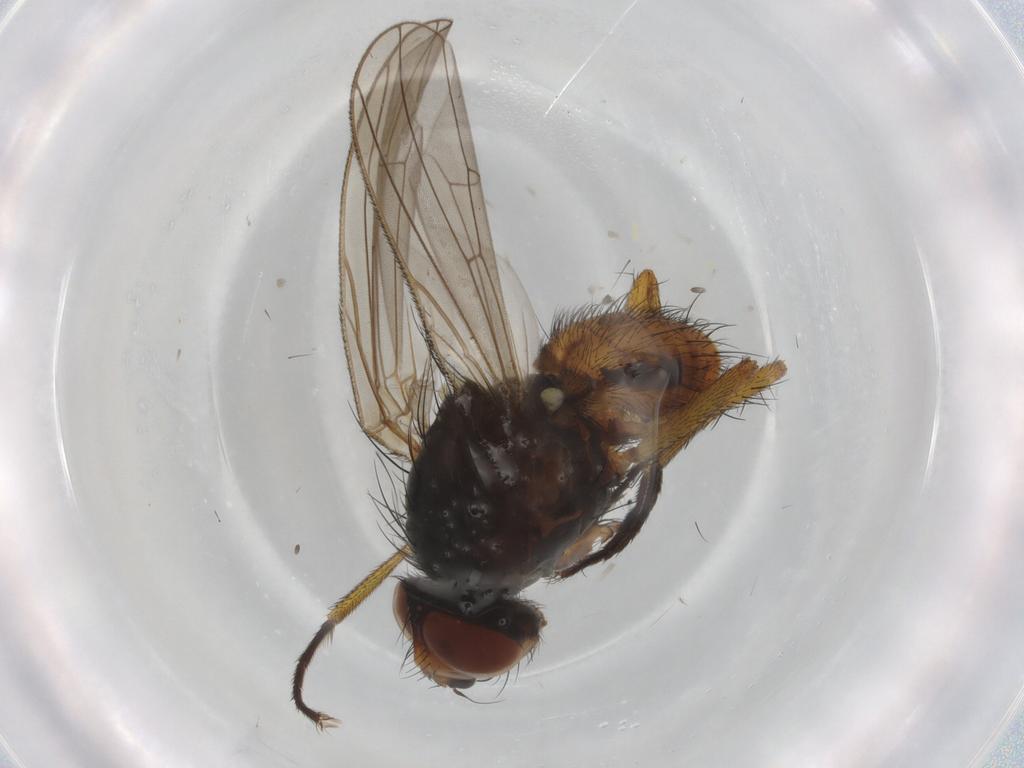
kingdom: Animalia
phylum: Arthropoda
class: Insecta
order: Diptera
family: Anthomyiidae
